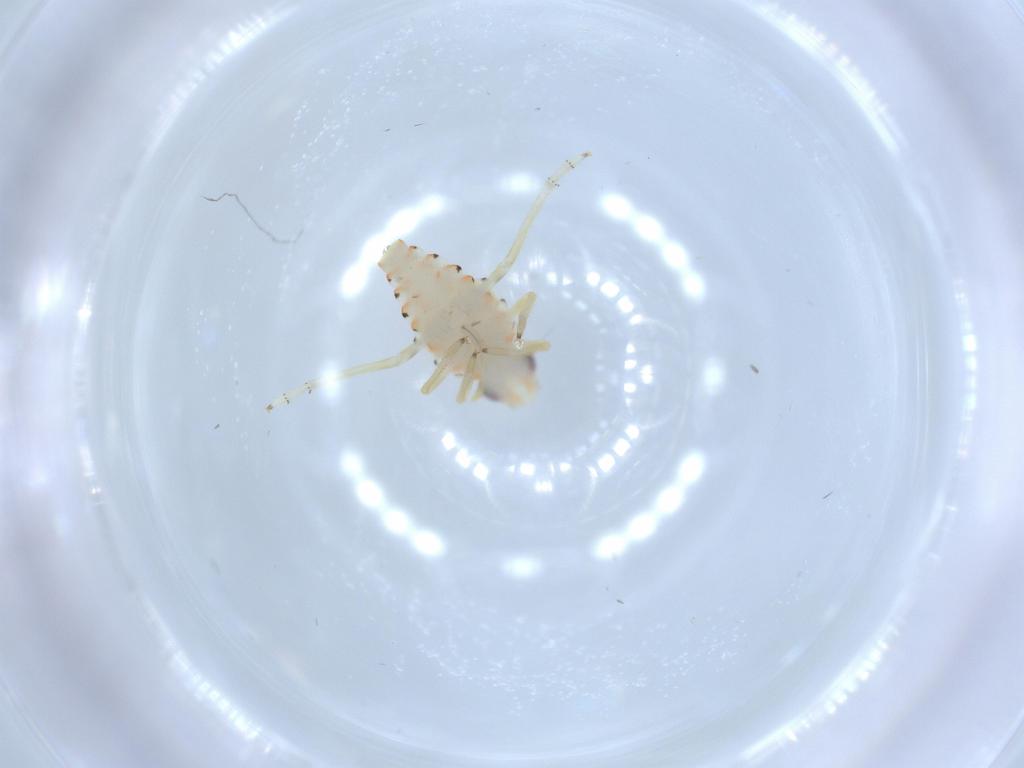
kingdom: Animalia
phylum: Arthropoda
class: Insecta
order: Hemiptera
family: Tropiduchidae
